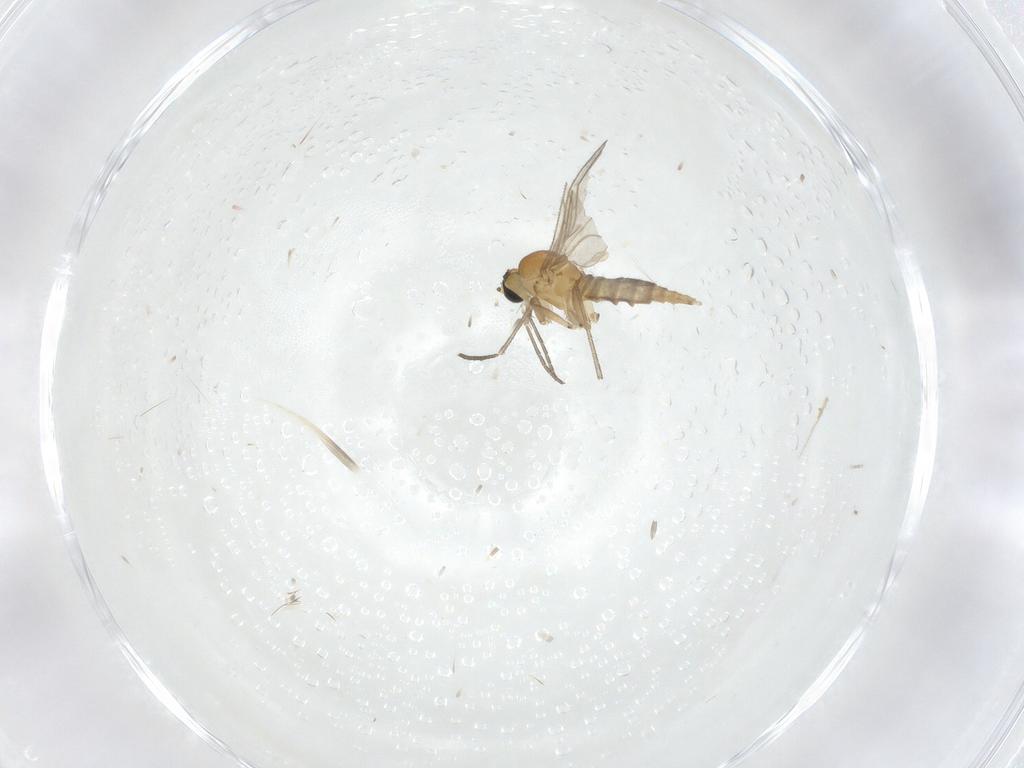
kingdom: Animalia
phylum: Arthropoda
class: Insecta
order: Diptera
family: Sciaridae
